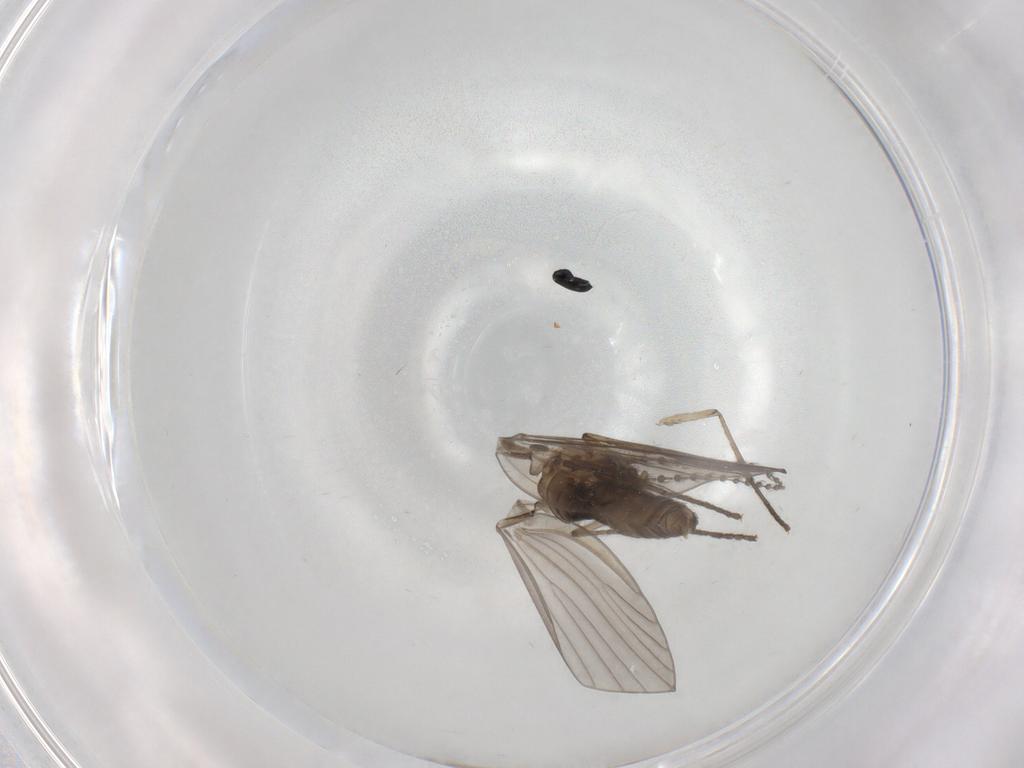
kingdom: Animalia
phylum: Arthropoda
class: Insecta
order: Diptera
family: Psychodidae
